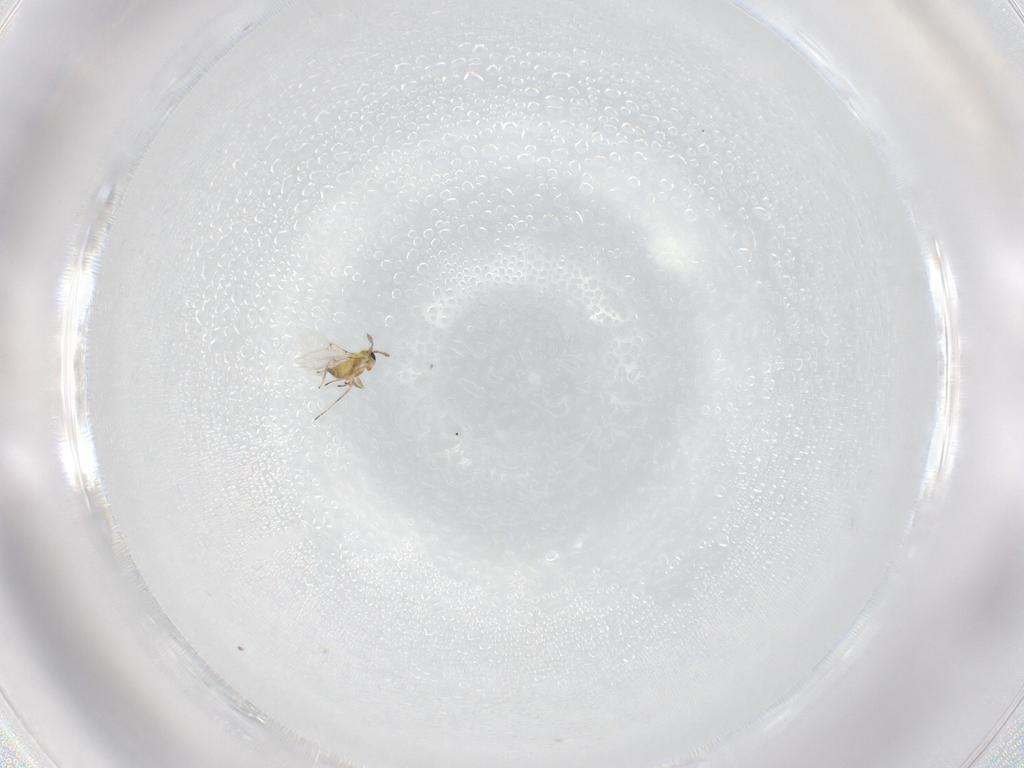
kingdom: Animalia
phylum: Arthropoda
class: Insecta
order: Hymenoptera
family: Trichogrammatidae
